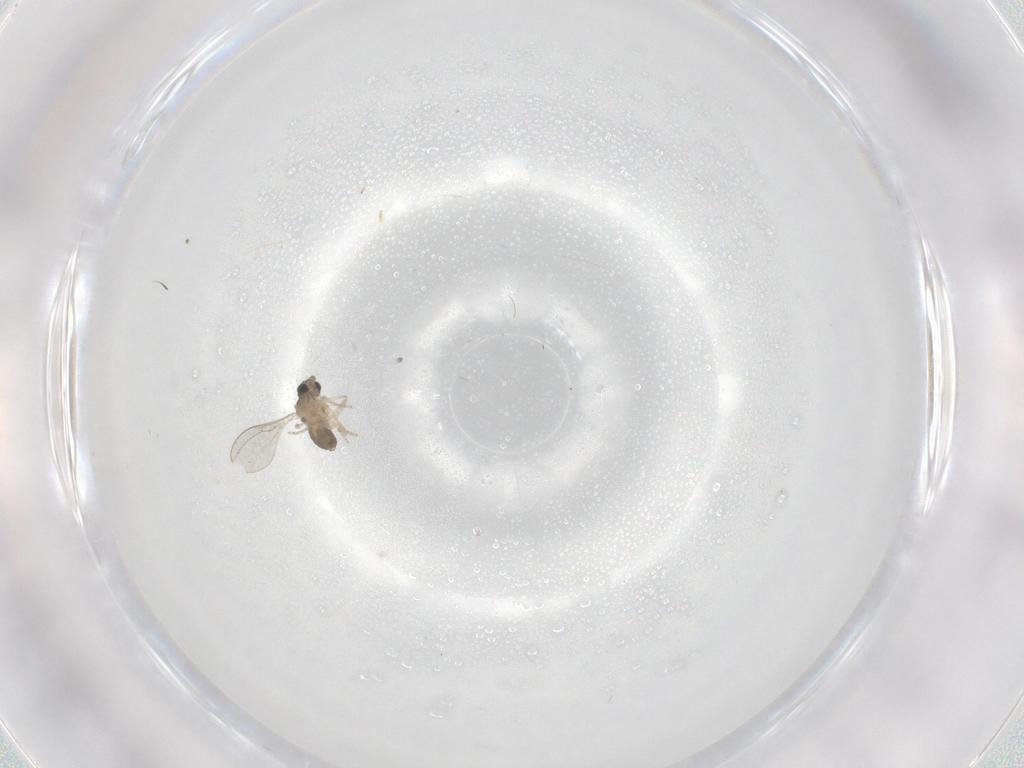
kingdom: Animalia
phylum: Arthropoda
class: Insecta
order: Diptera
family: Cecidomyiidae
